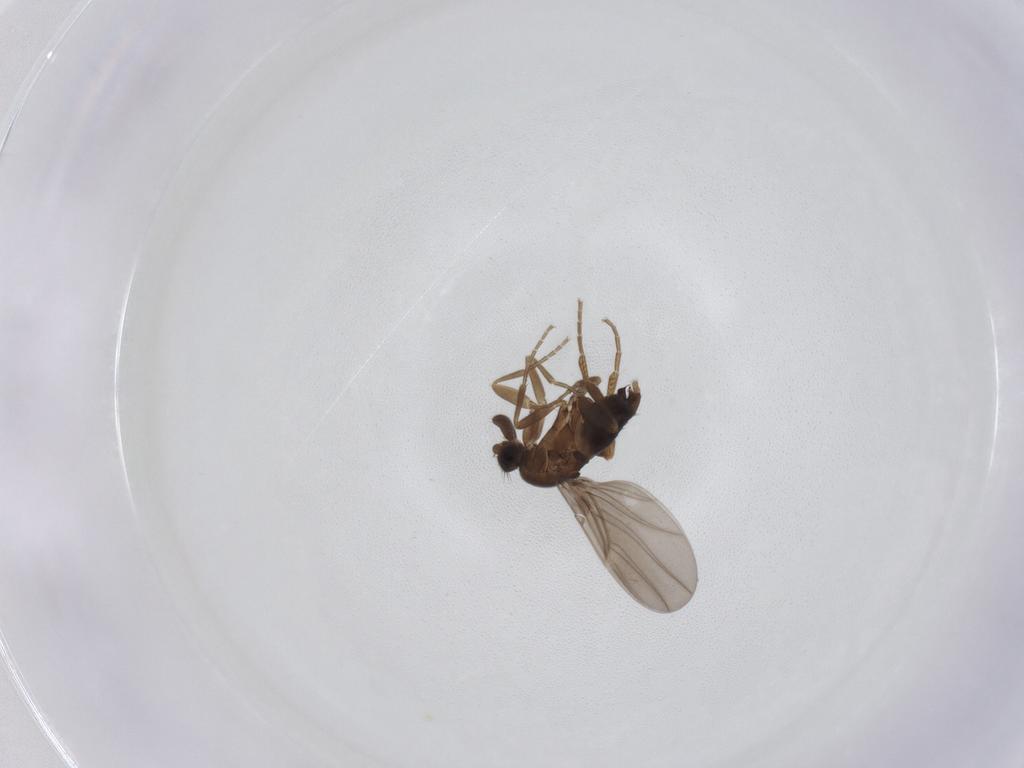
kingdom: Animalia
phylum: Arthropoda
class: Insecta
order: Diptera
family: Phoridae
